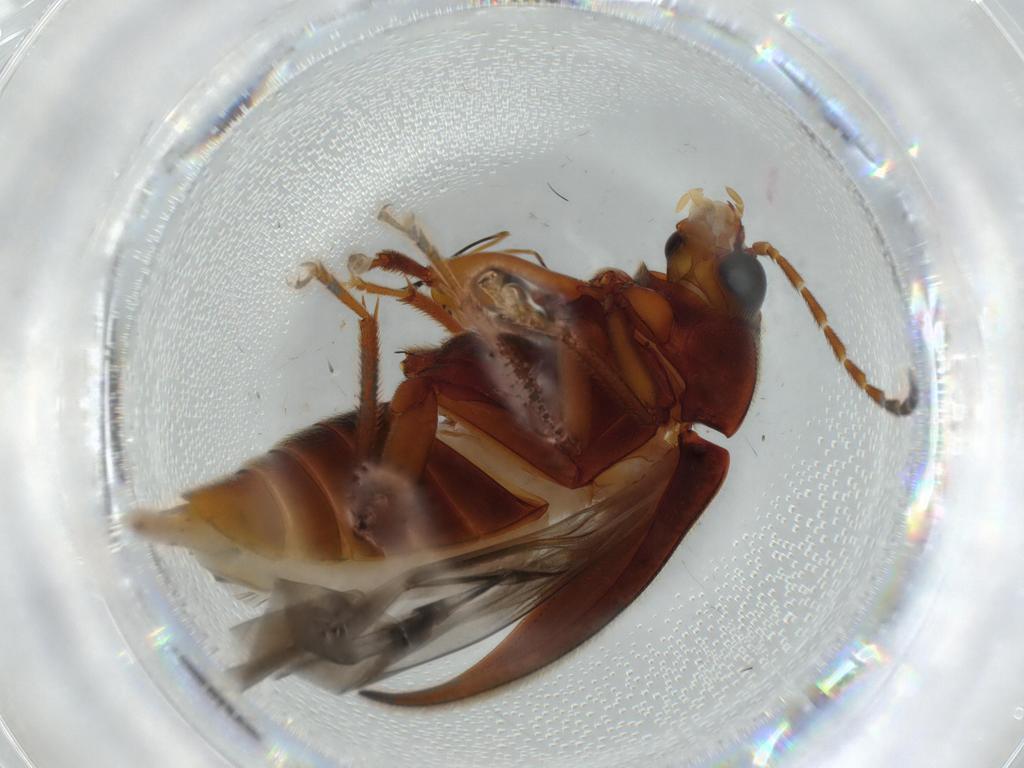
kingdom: Animalia
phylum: Arthropoda
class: Insecta
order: Coleoptera
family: Ptilodactylidae
